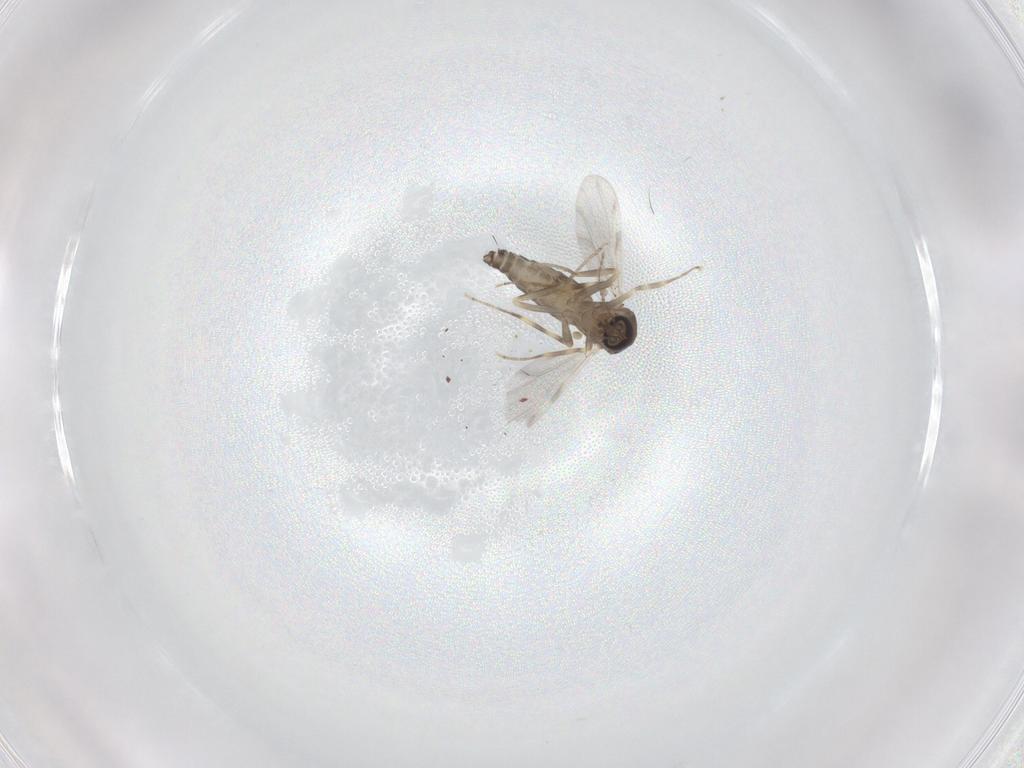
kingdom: Animalia
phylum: Arthropoda
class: Insecta
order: Diptera
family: Ceratopogonidae
